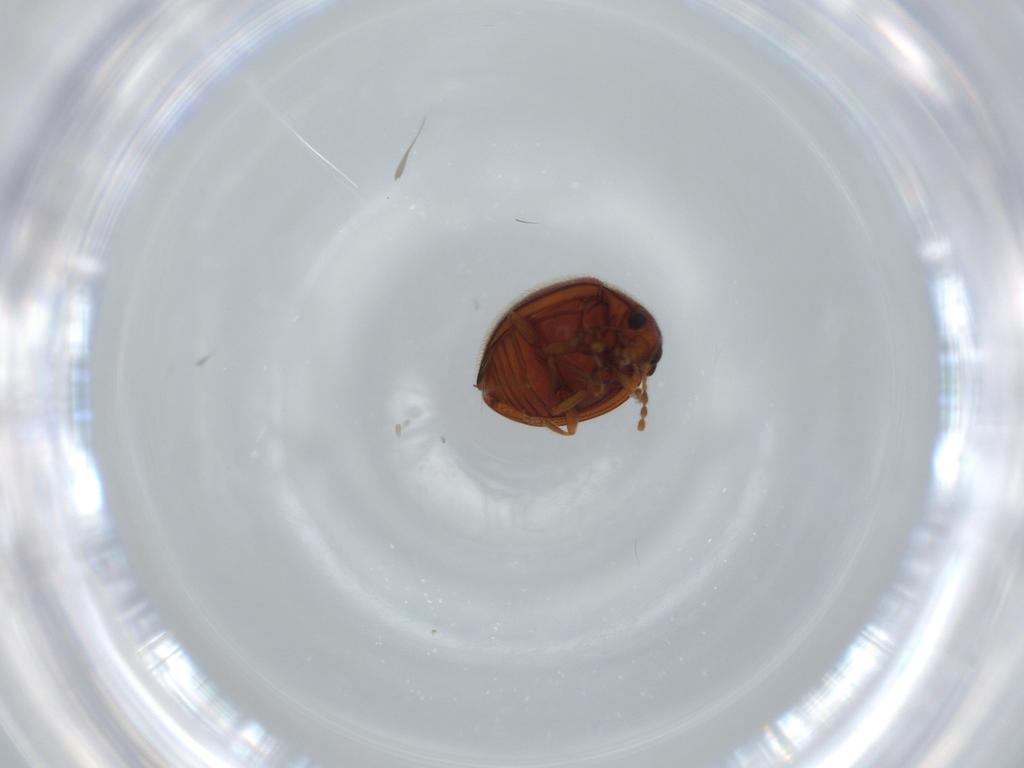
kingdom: Animalia
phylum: Arthropoda
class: Insecta
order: Coleoptera
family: Anamorphidae
